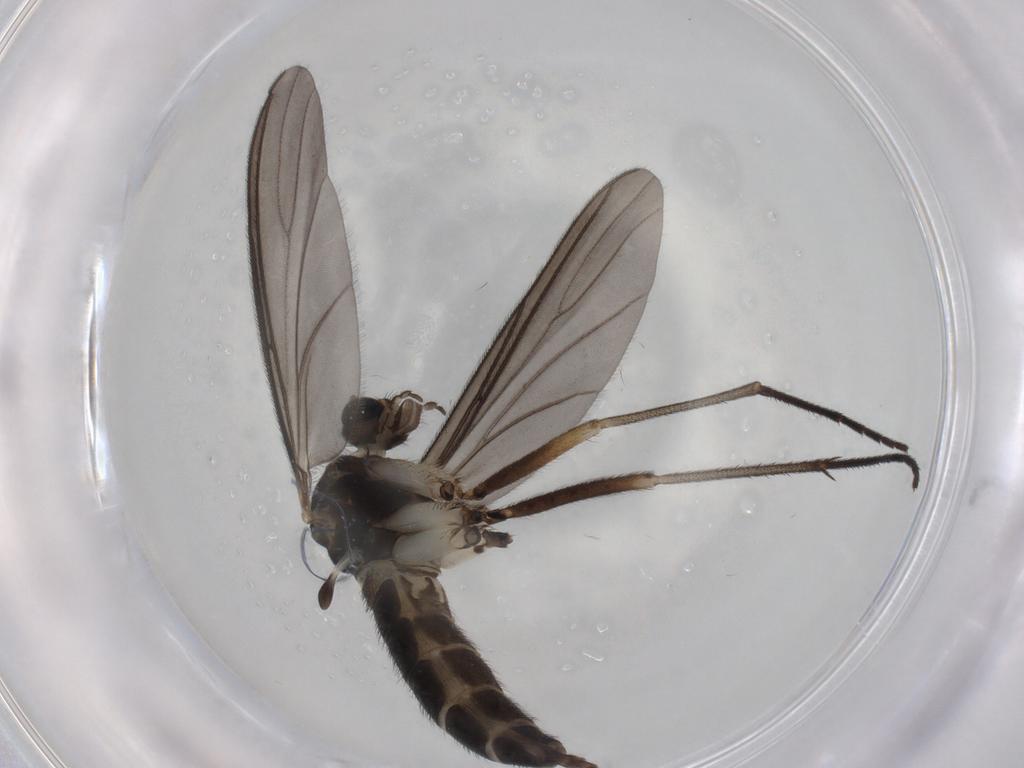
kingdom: Animalia
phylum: Arthropoda
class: Insecta
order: Diptera
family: Sciaridae
